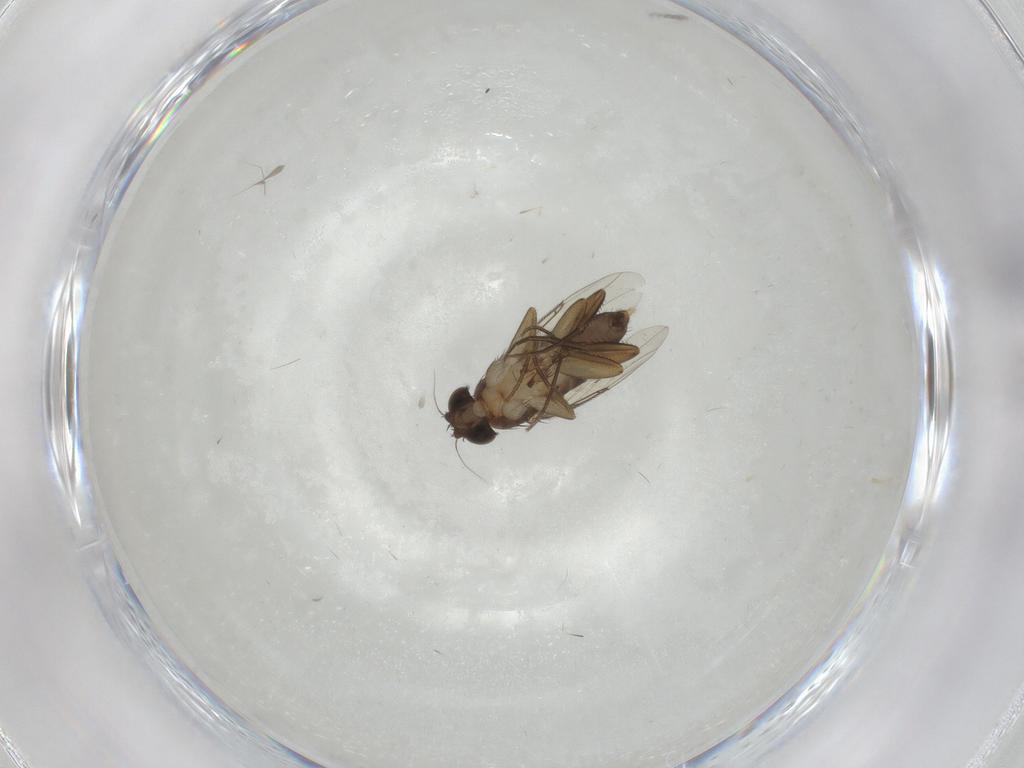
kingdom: Animalia
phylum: Arthropoda
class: Insecta
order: Diptera
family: Phoridae
